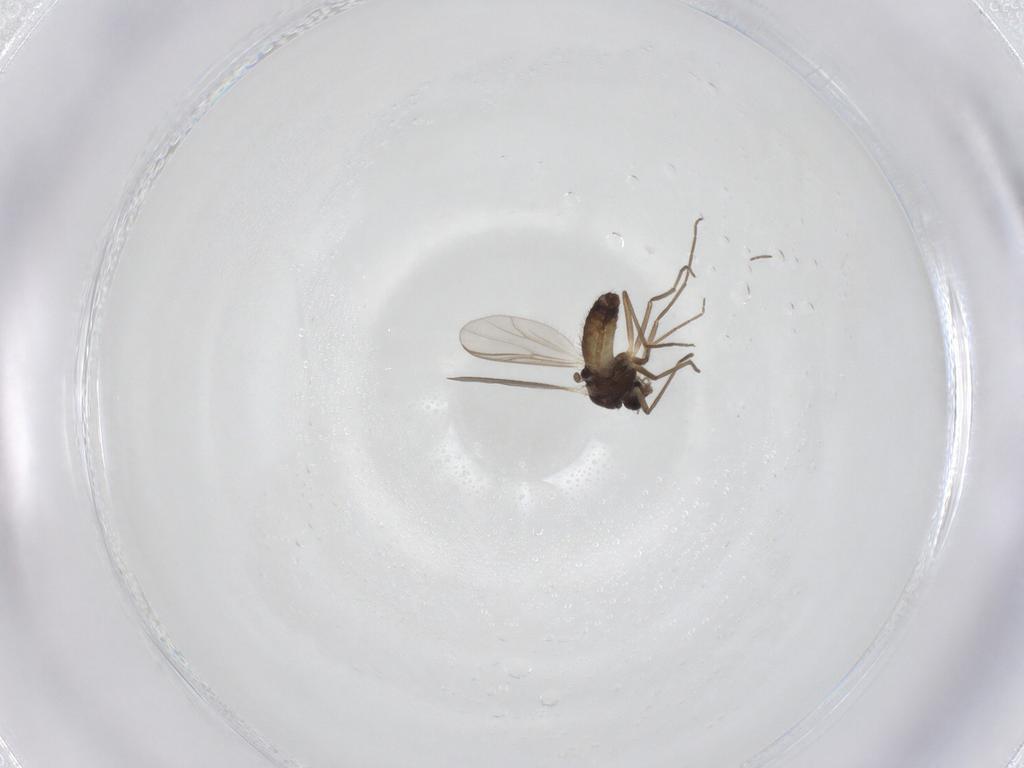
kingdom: Animalia
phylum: Arthropoda
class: Insecta
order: Diptera
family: Chironomidae
